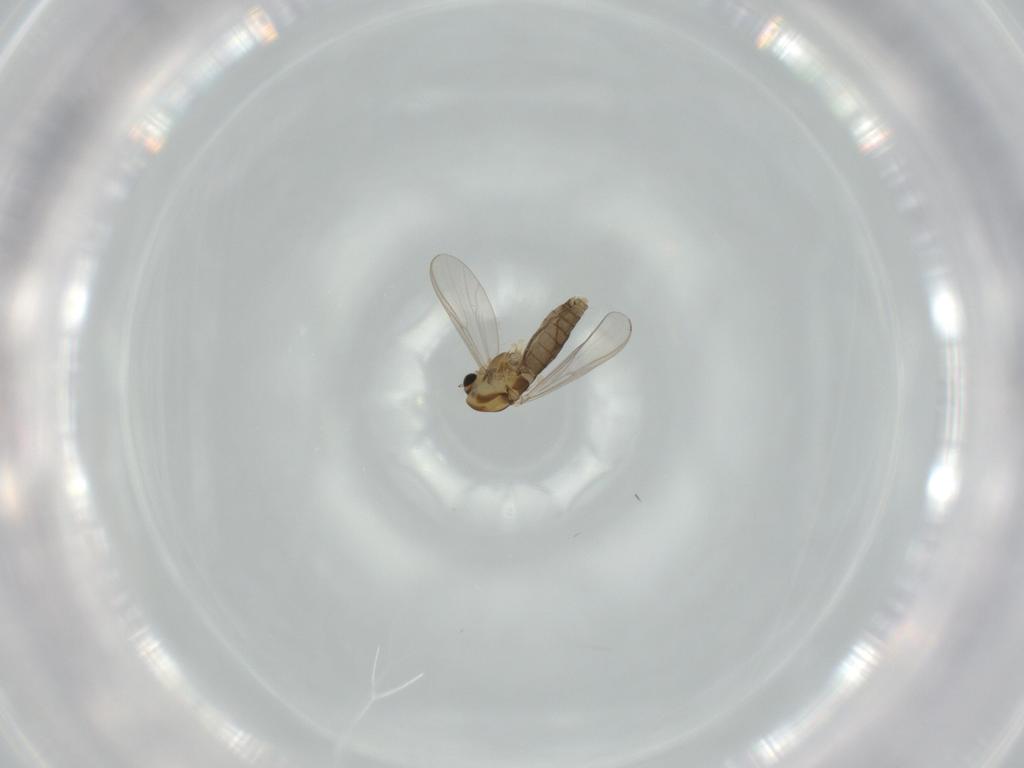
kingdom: Animalia
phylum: Arthropoda
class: Insecta
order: Diptera
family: Chironomidae
